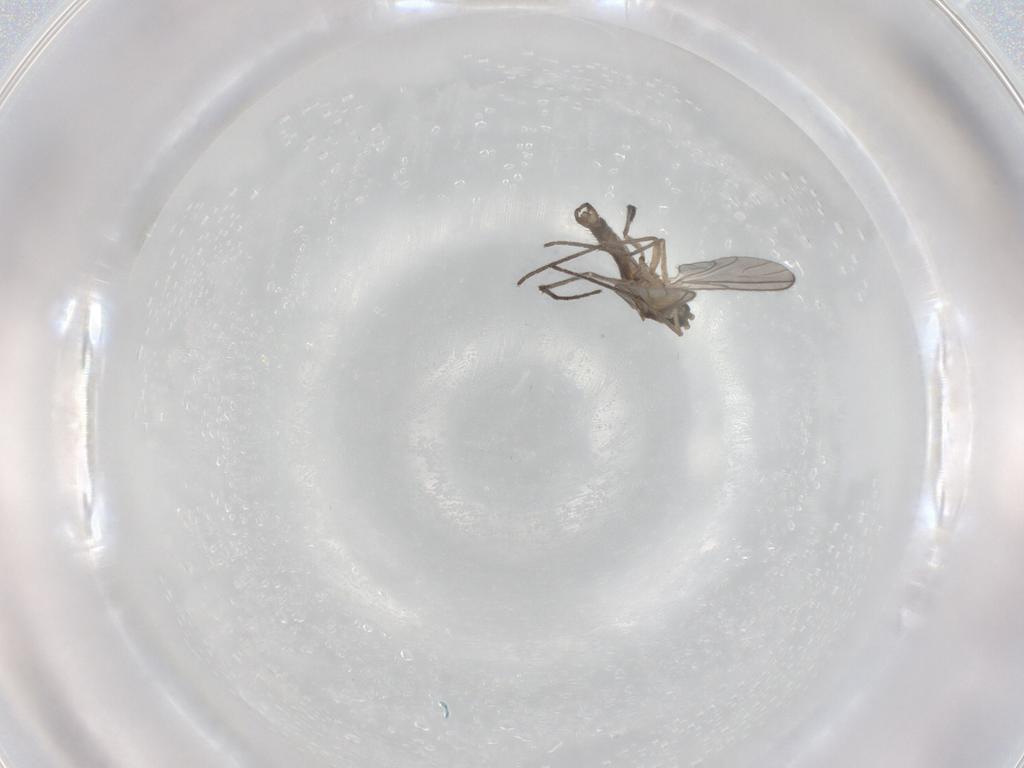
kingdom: Animalia
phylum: Arthropoda
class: Insecta
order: Diptera
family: Sciaridae
